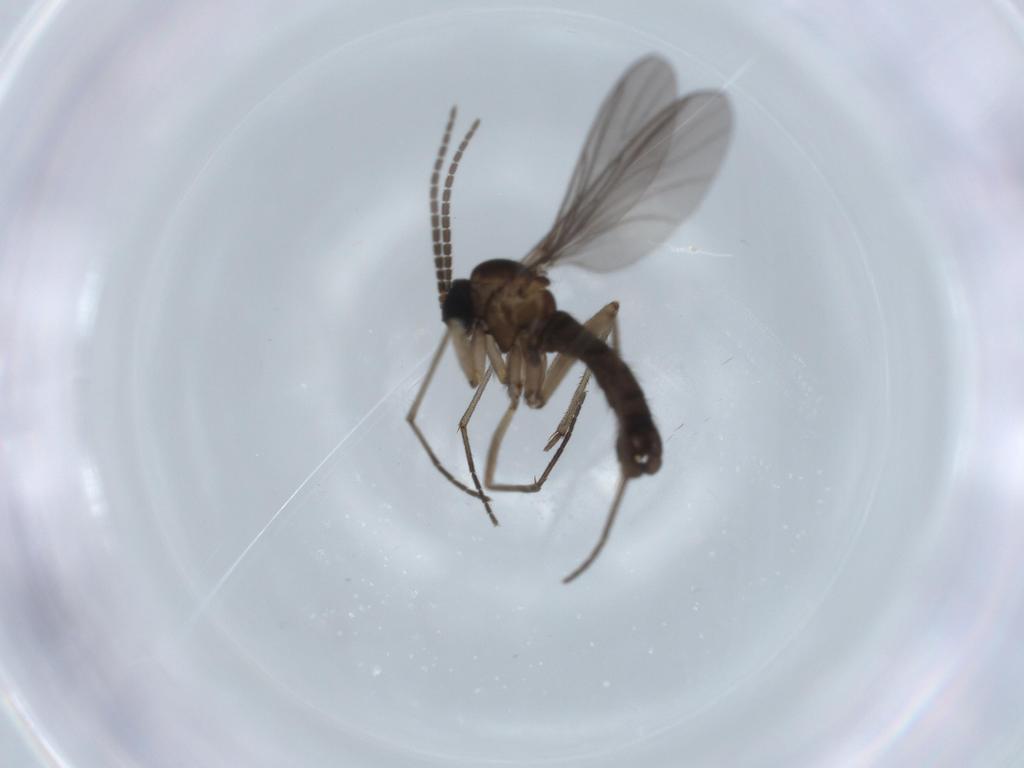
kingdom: Animalia
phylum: Arthropoda
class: Insecta
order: Diptera
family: Sciaridae
